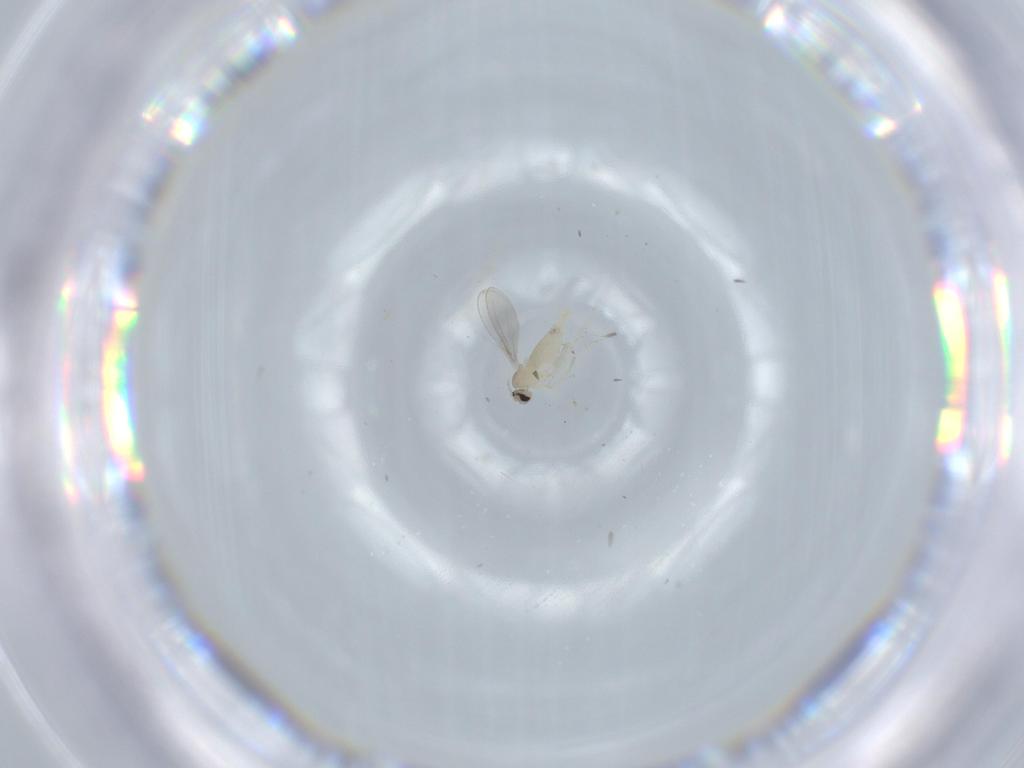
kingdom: Animalia
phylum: Arthropoda
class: Insecta
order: Diptera
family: Cecidomyiidae
